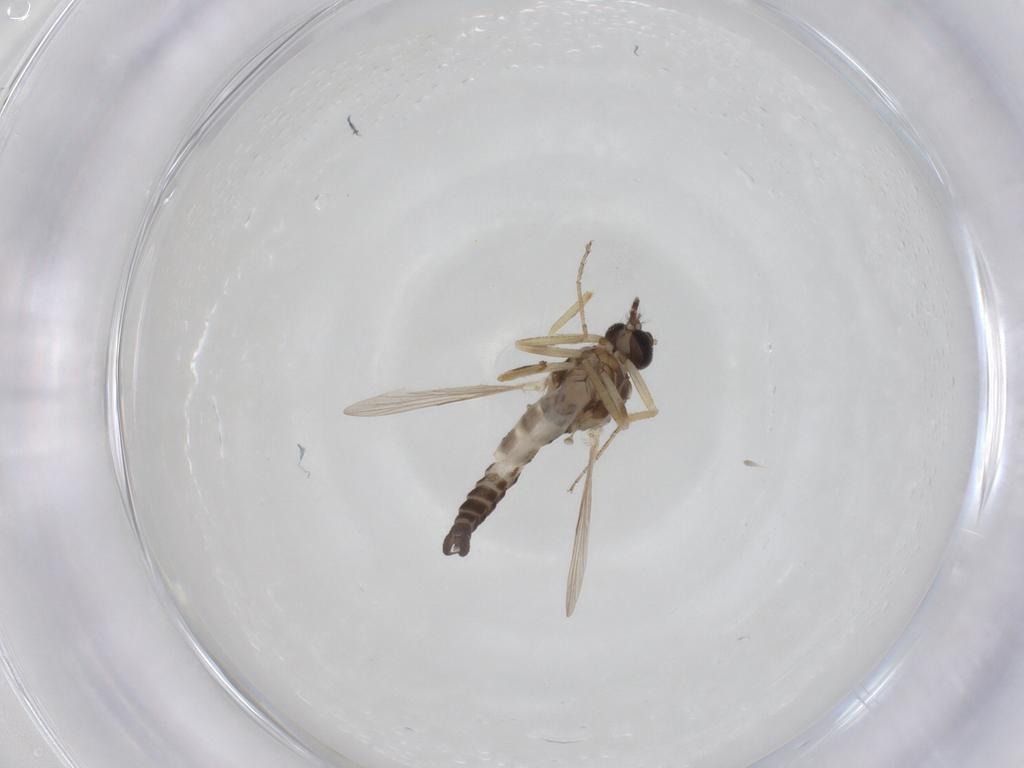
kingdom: Animalia
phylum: Arthropoda
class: Insecta
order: Diptera
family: Ceratopogonidae
